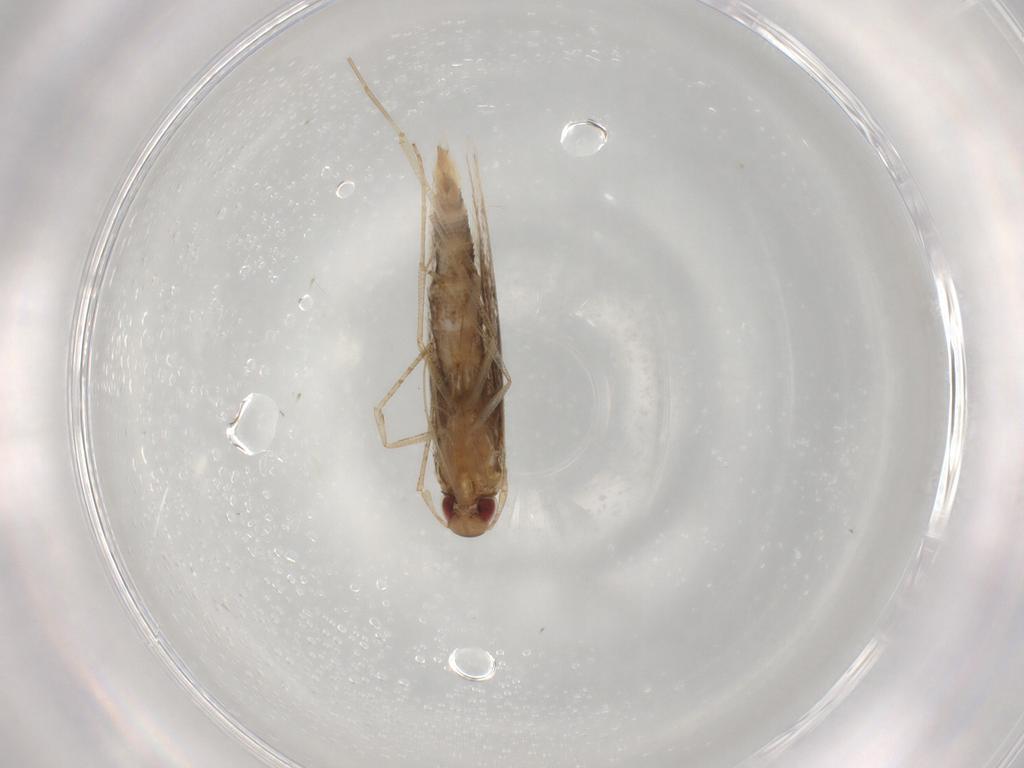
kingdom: Animalia
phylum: Arthropoda
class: Insecta
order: Lepidoptera
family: Cosmopterigidae
